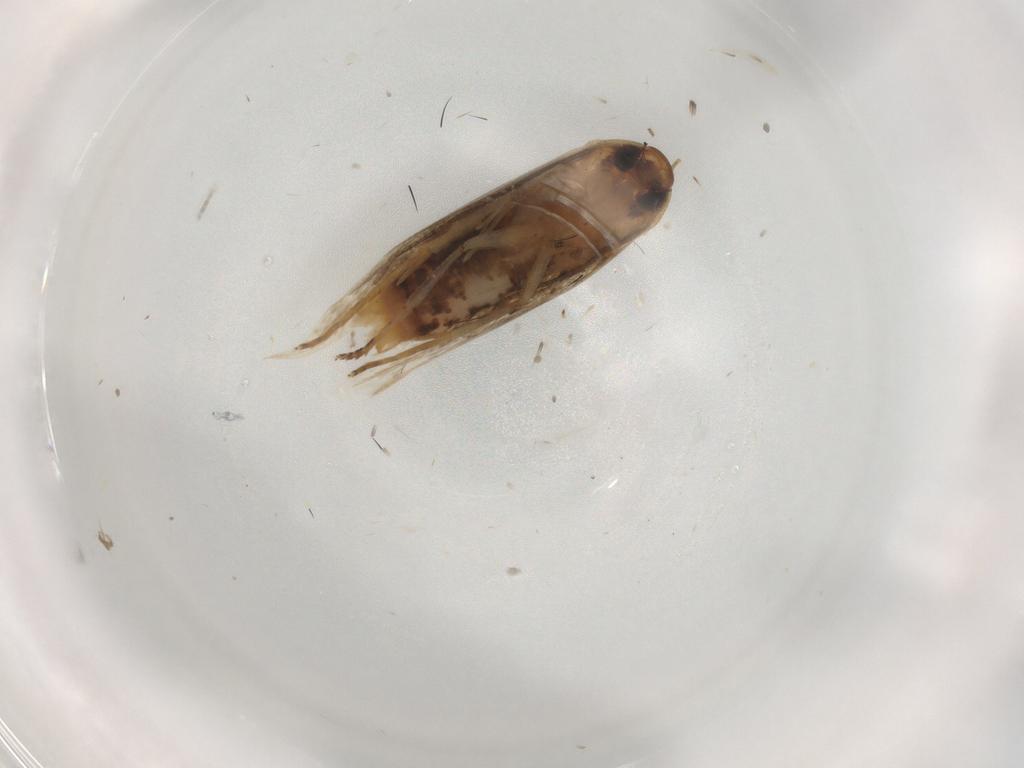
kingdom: Animalia
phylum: Arthropoda
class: Insecta
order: Lepidoptera
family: Cosmopterigidae
